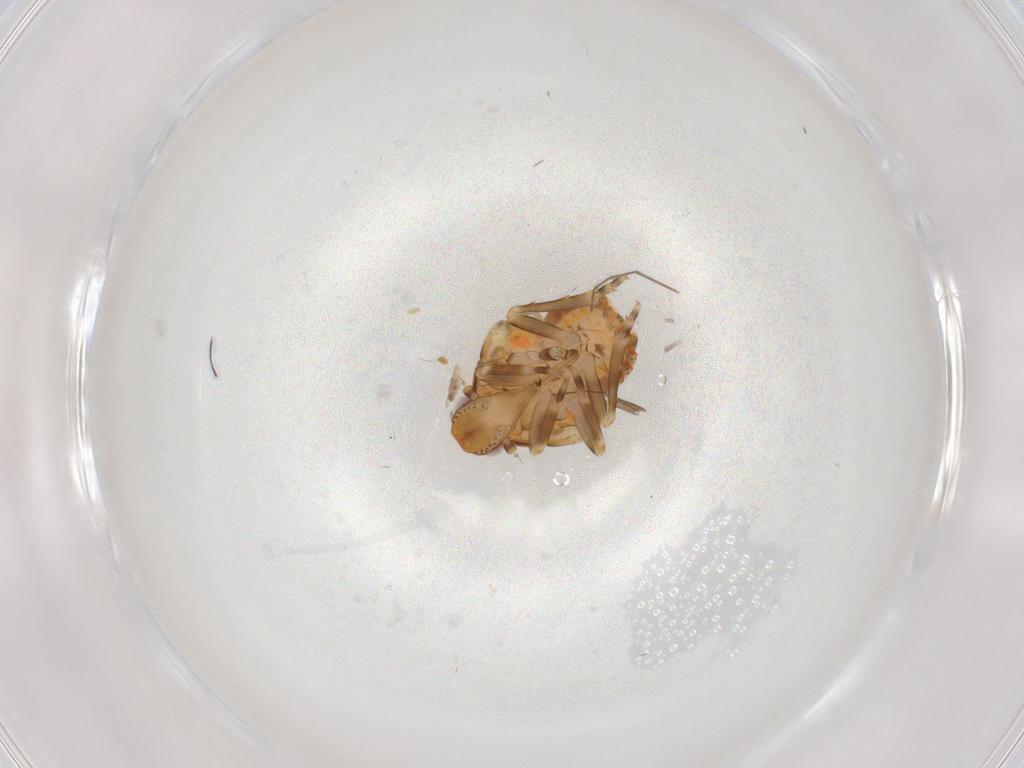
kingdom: Animalia
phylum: Arthropoda
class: Insecta
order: Hemiptera
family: Flatidae
